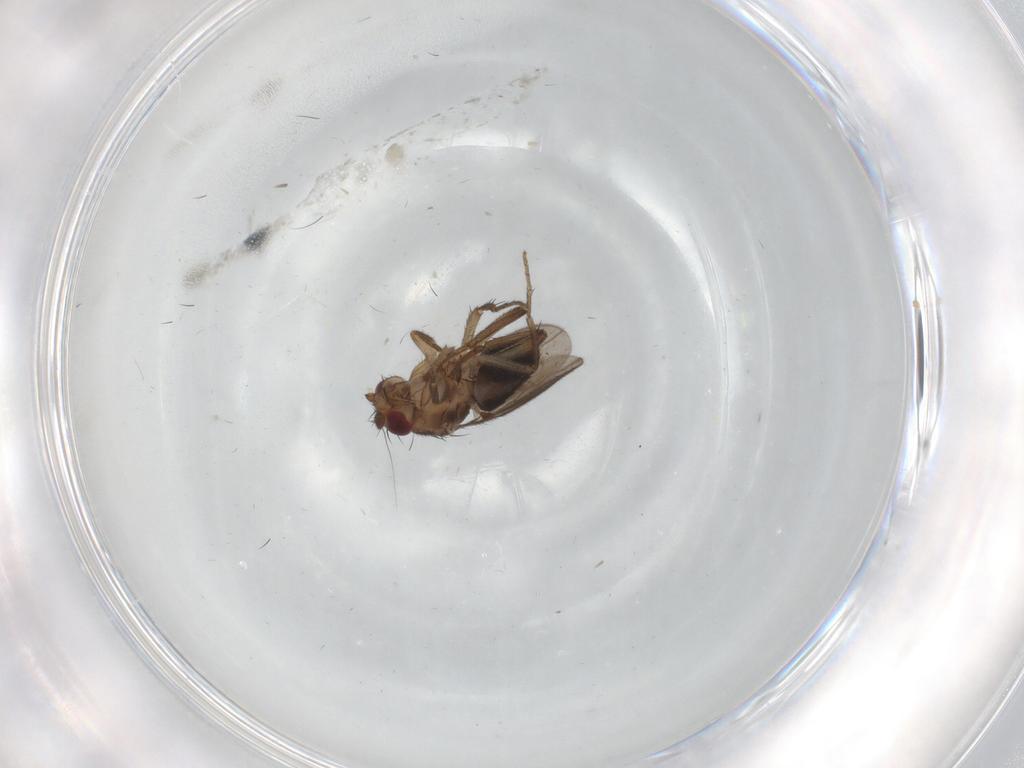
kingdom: Animalia
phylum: Arthropoda
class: Insecta
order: Diptera
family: Sphaeroceridae
